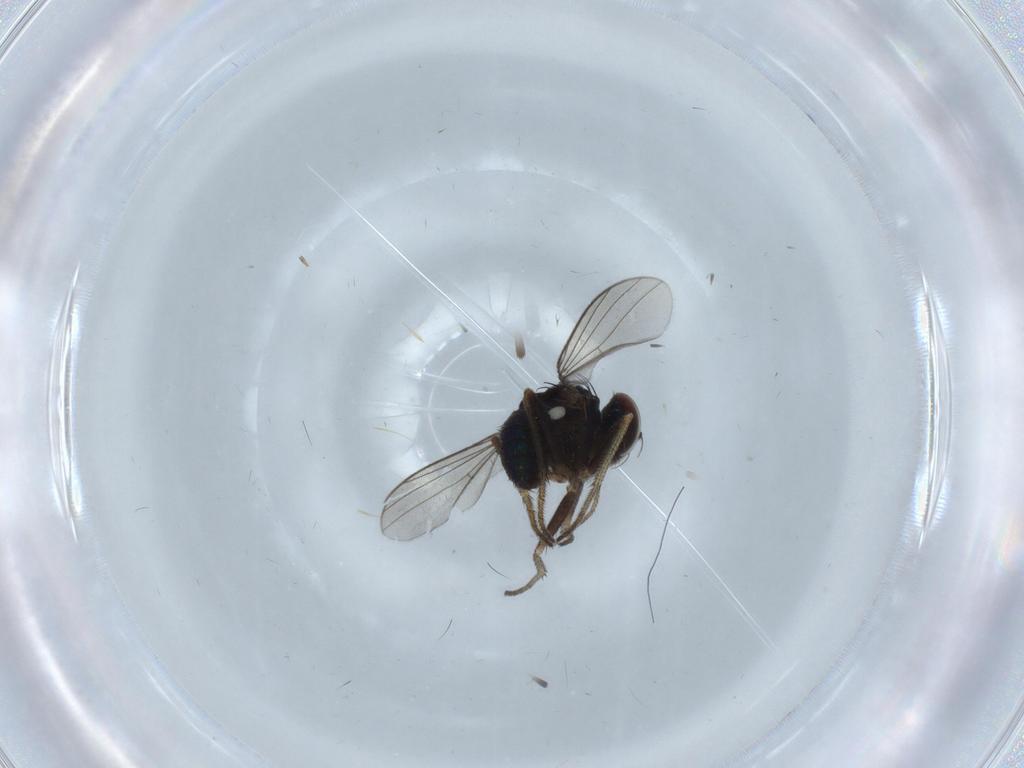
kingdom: Animalia
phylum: Arthropoda
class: Insecta
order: Diptera
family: Dolichopodidae
